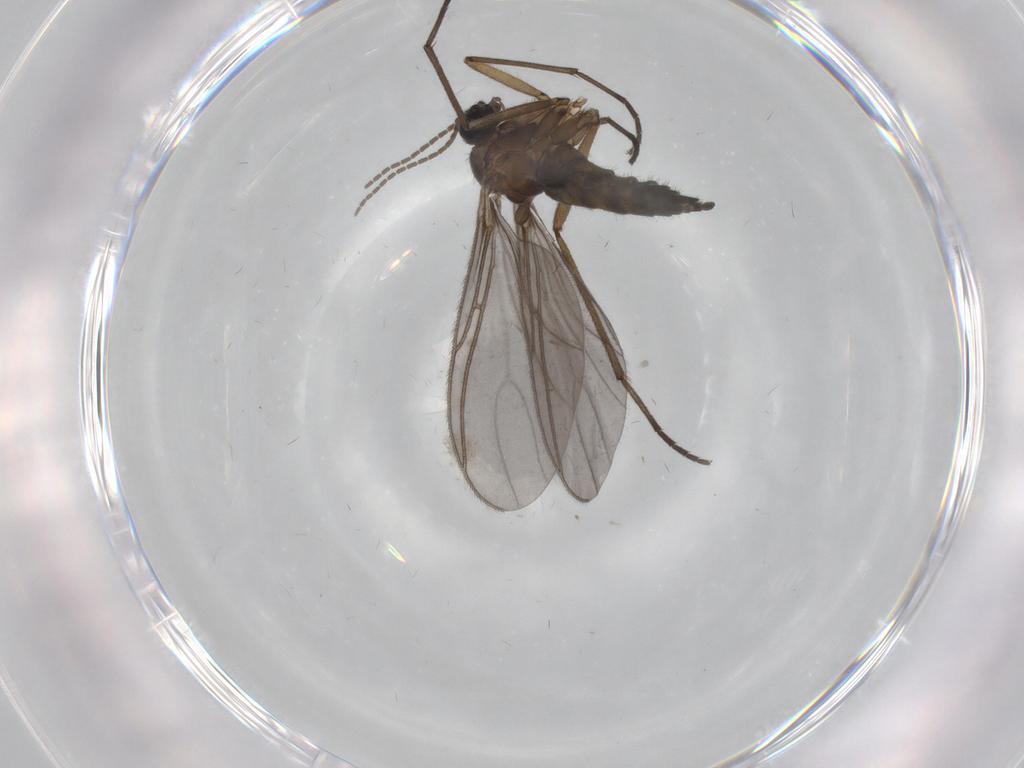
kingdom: Animalia
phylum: Arthropoda
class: Insecta
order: Diptera
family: Sciaridae
